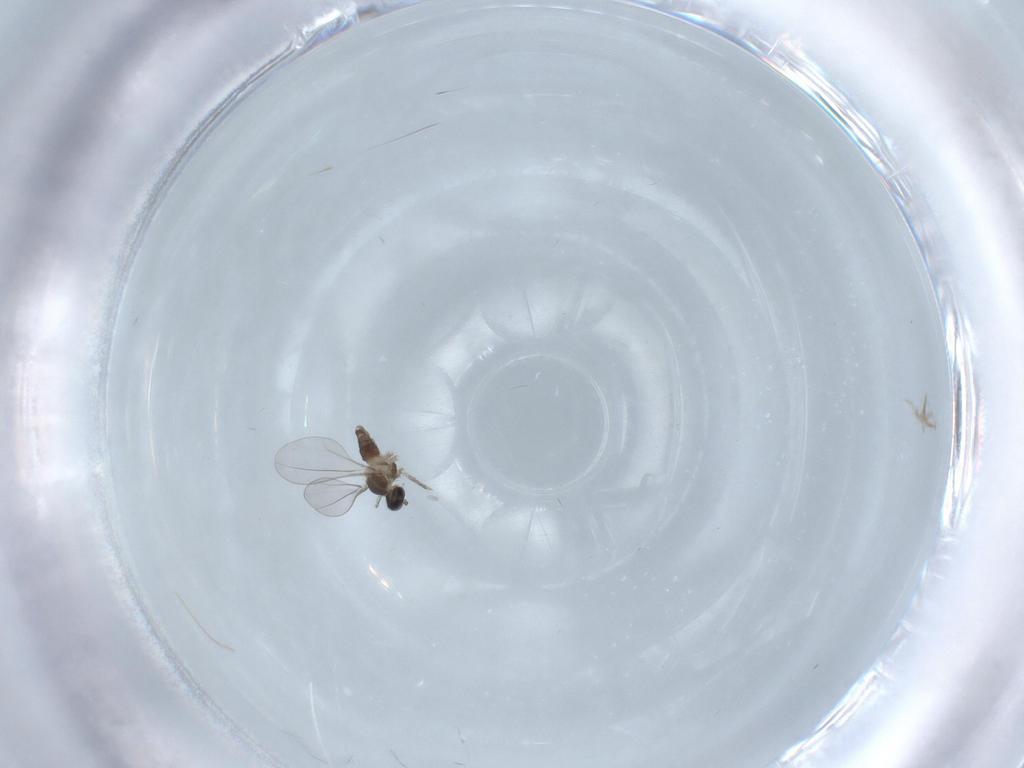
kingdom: Animalia
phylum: Arthropoda
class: Insecta
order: Diptera
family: Cecidomyiidae
